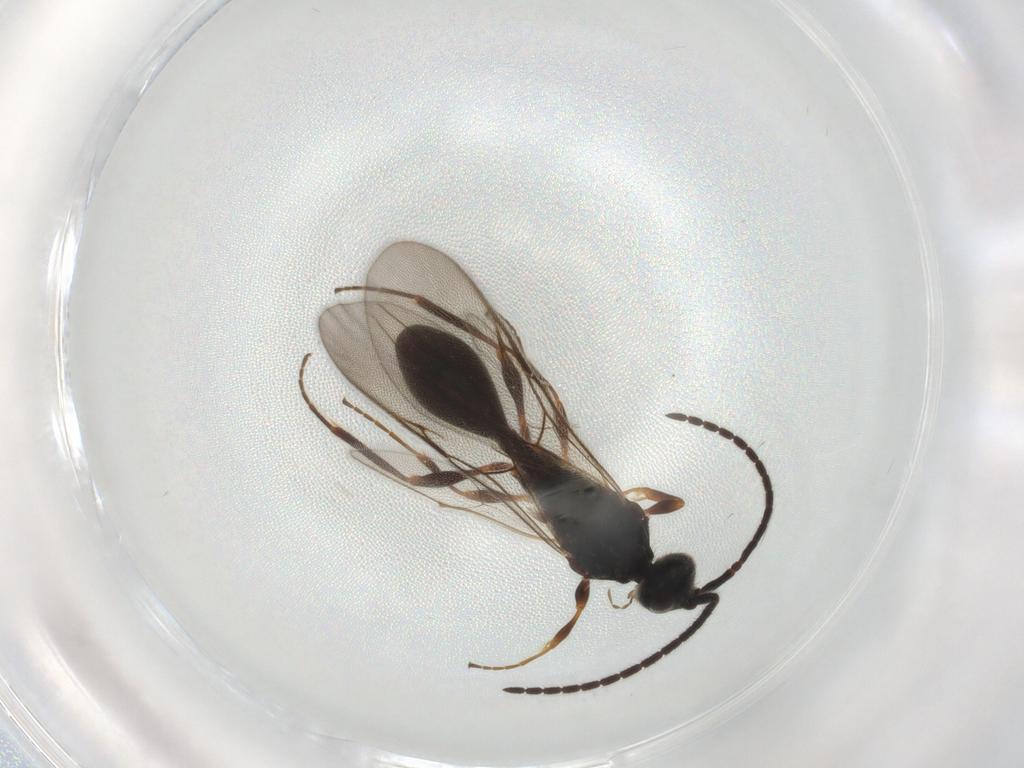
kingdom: Animalia
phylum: Arthropoda
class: Insecta
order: Hymenoptera
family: Diapriidae
